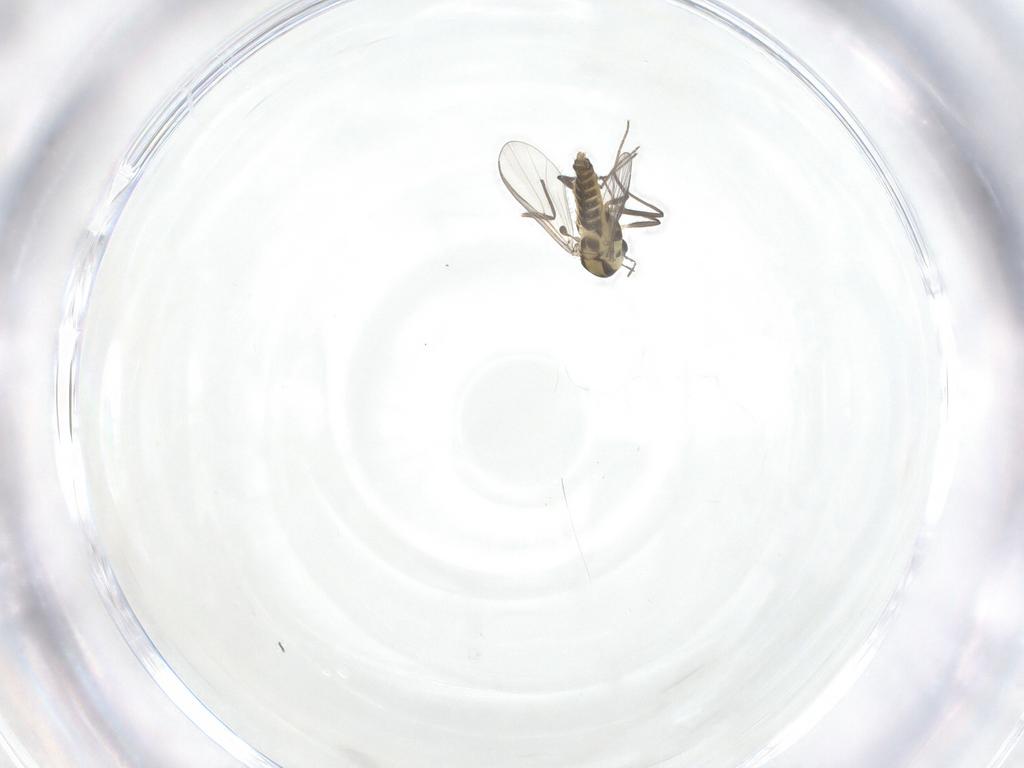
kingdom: Animalia
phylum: Arthropoda
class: Insecta
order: Diptera
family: Chironomidae
